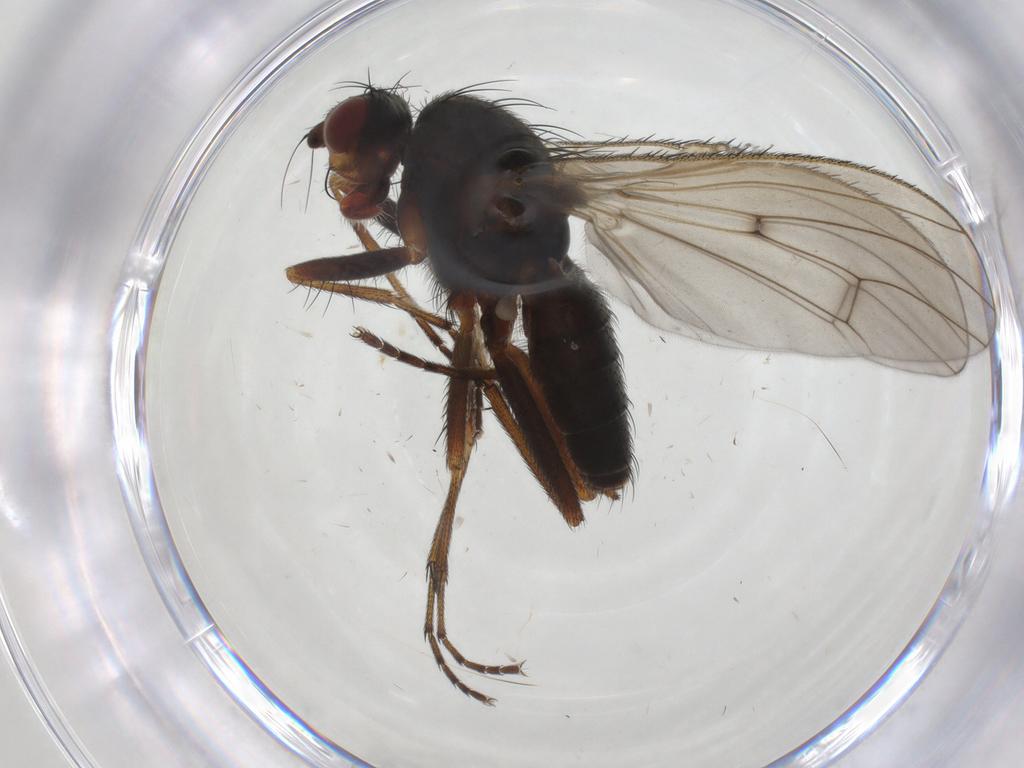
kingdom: Animalia
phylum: Arthropoda
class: Insecta
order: Diptera
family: Heleomyzidae
